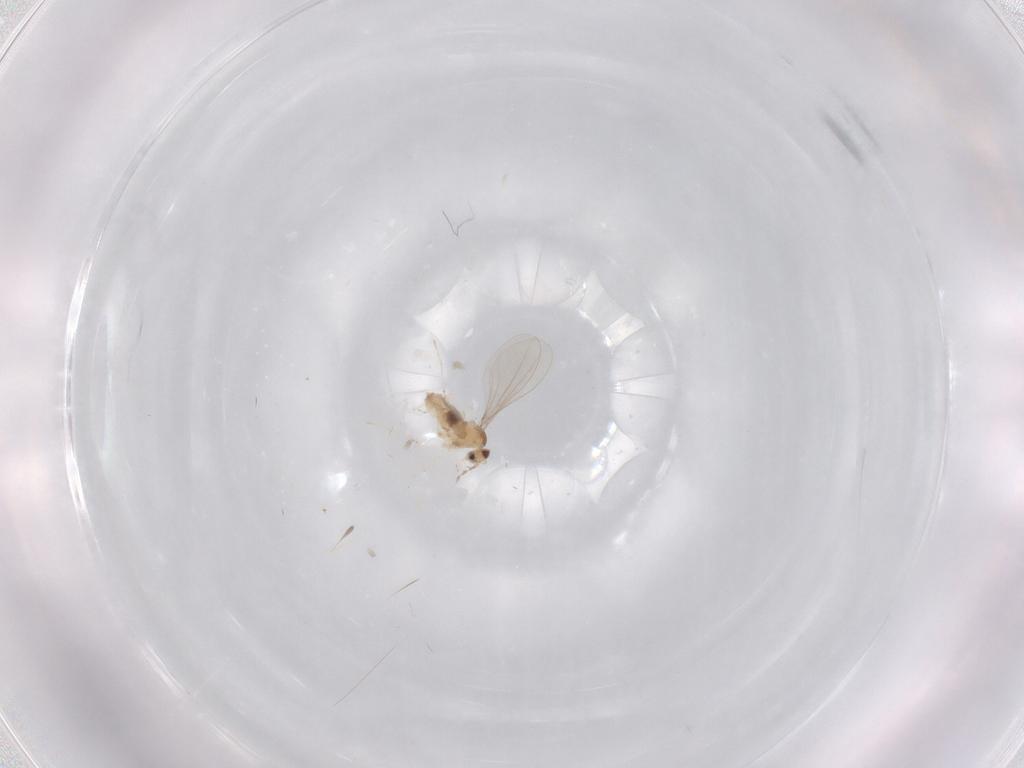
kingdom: Animalia
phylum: Arthropoda
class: Insecta
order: Diptera
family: Cecidomyiidae
